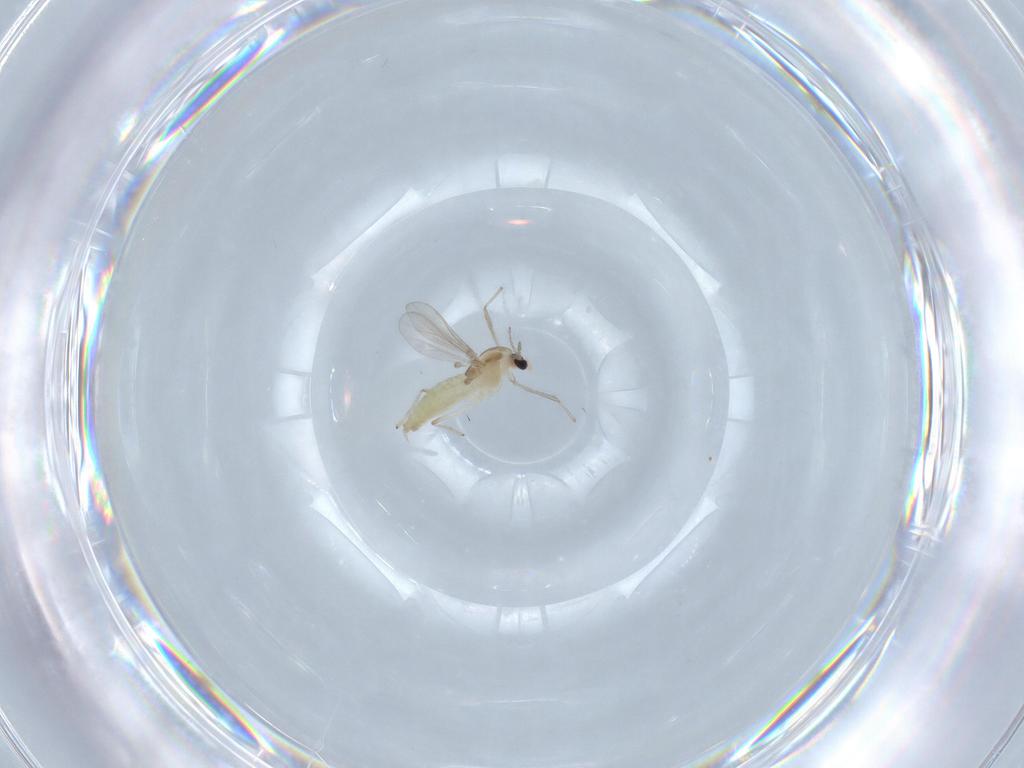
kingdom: Animalia
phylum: Arthropoda
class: Insecta
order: Diptera
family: Chironomidae
